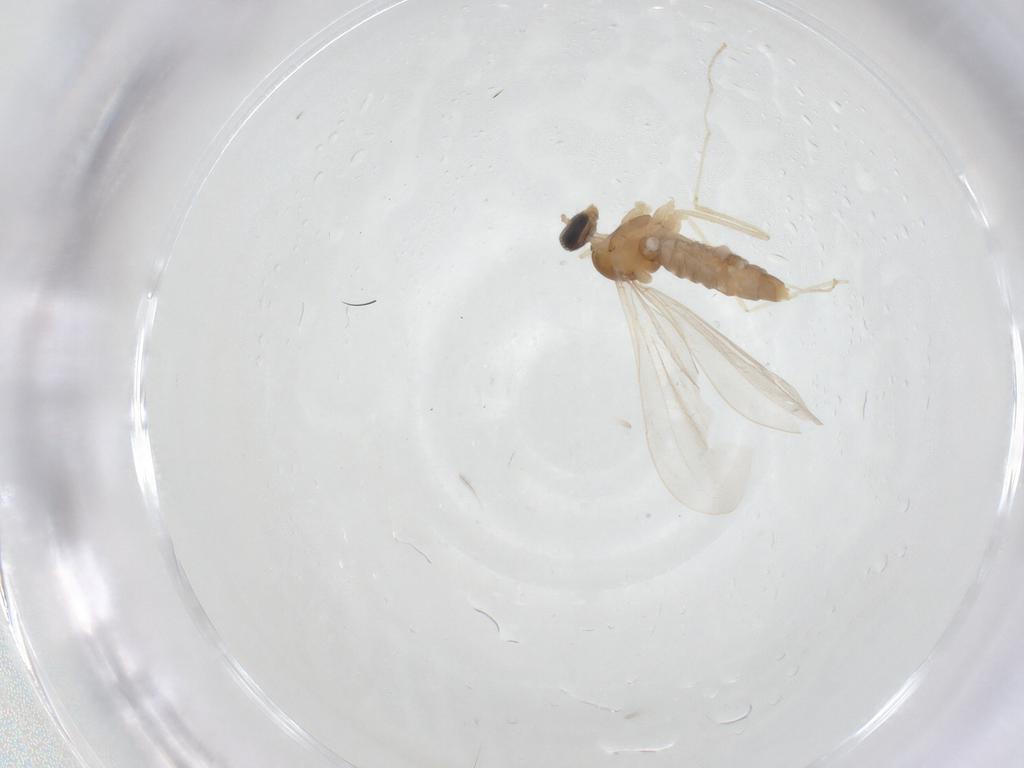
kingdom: Animalia
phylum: Arthropoda
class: Insecta
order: Diptera
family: Cecidomyiidae
